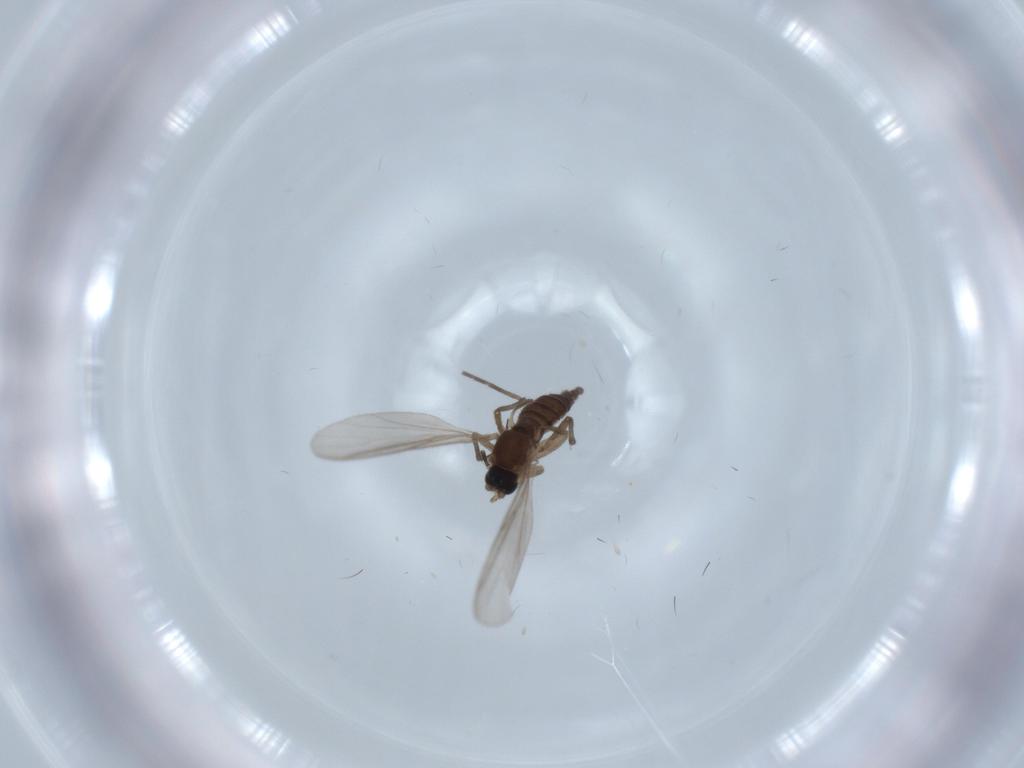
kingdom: Animalia
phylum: Arthropoda
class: Insecta
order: Diptera
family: Sciaridae
